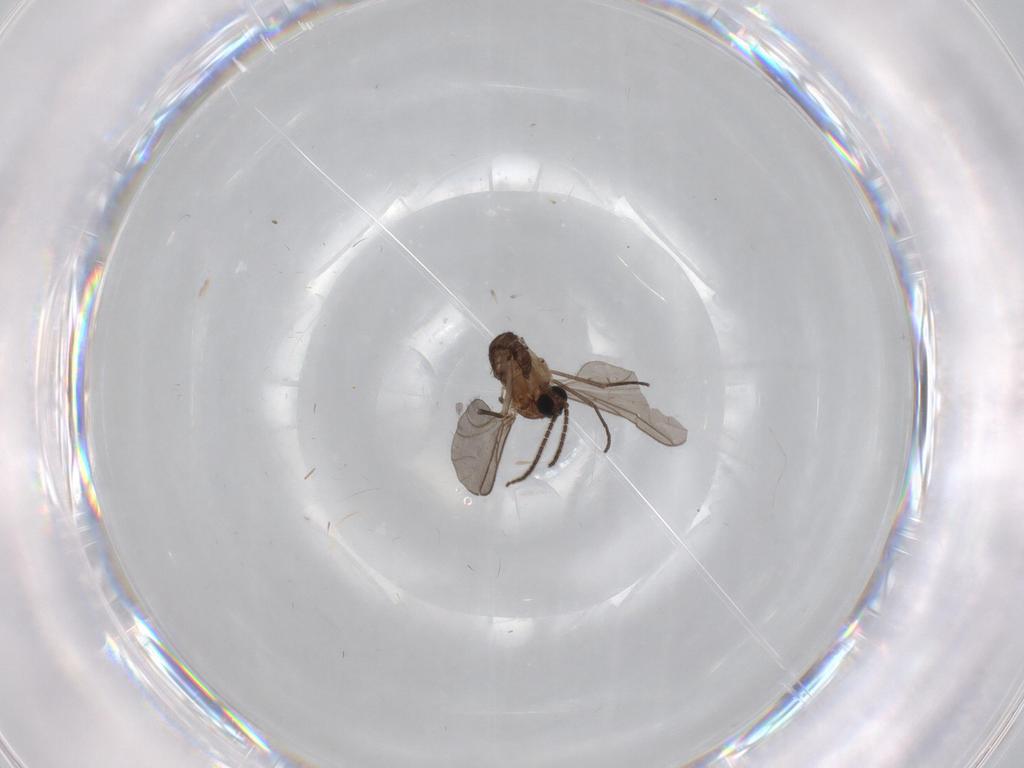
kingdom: Animalia
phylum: Arthropoda
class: Insecta
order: Diptera
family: Sciaridae
